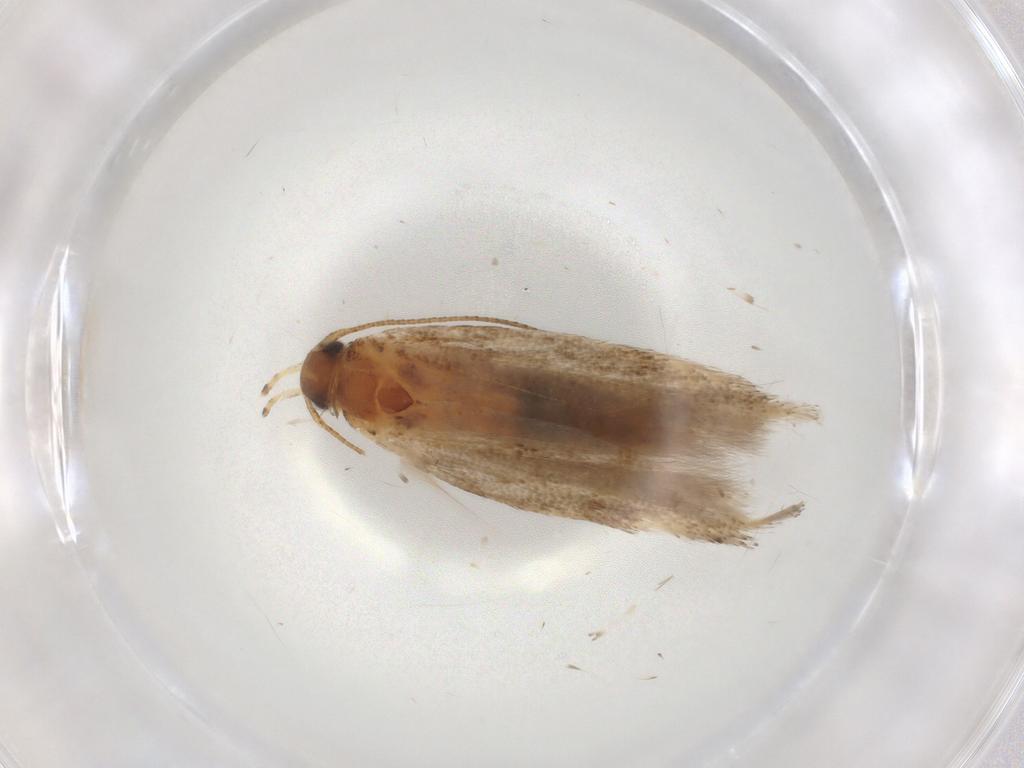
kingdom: Animalia
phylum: Arthropoda
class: Insecta
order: Lepidoptera
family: Gelechiidae
